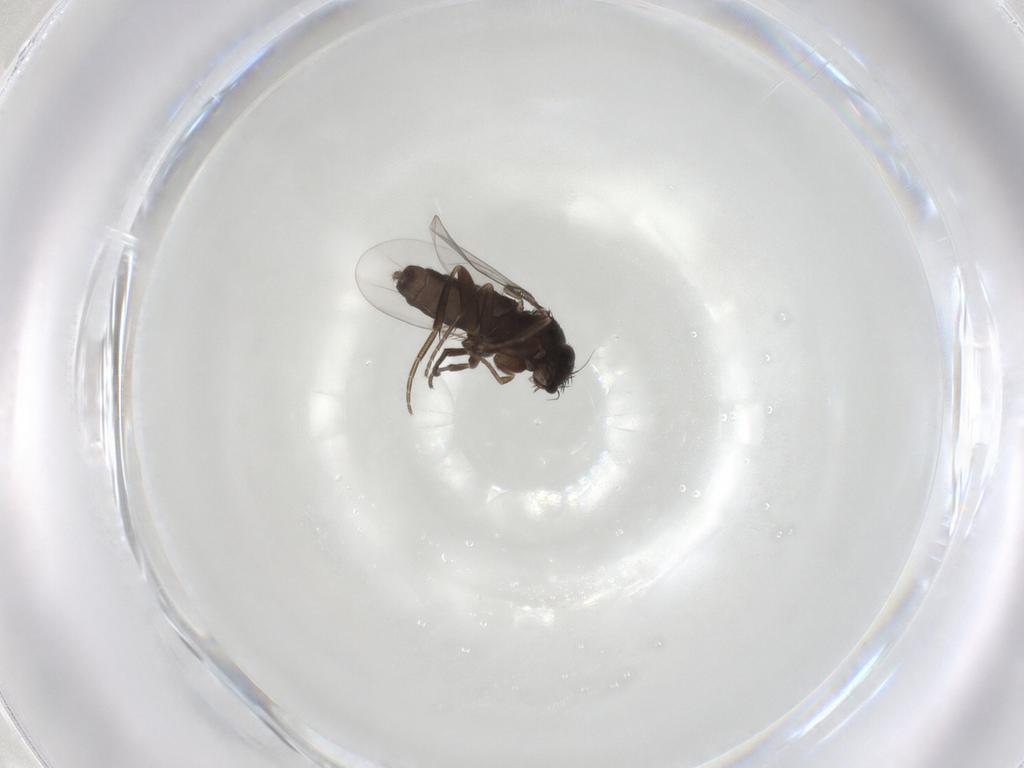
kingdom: Animalia
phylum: Arthropoda
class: Insecta
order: Diptera
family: Phoridae
